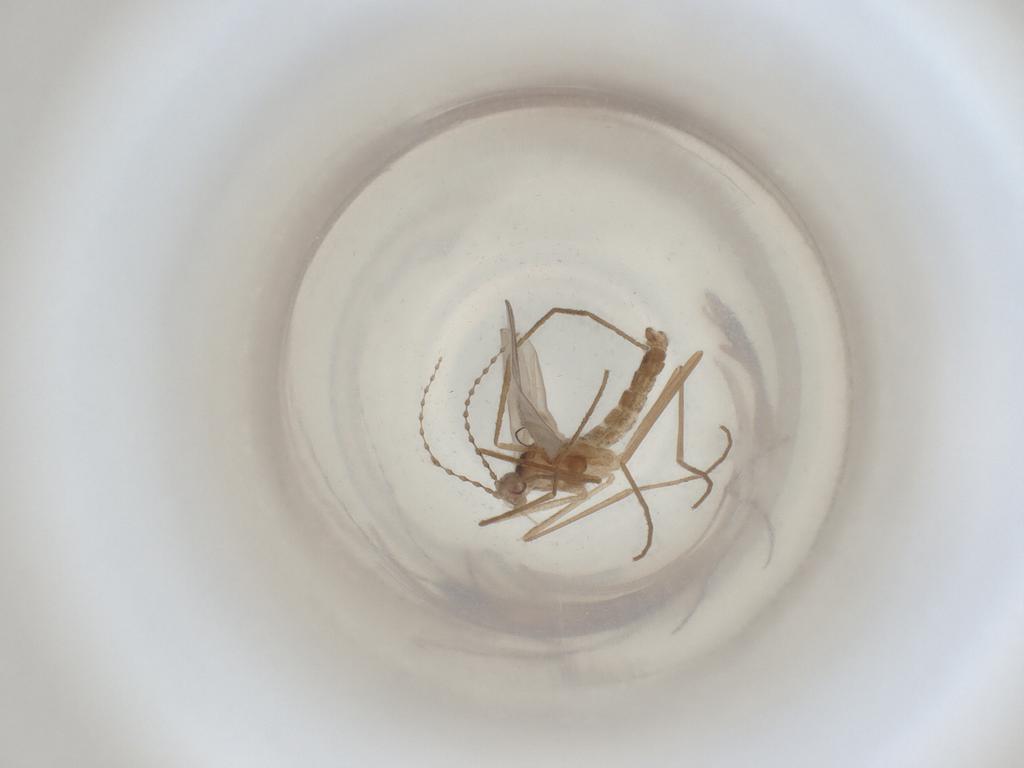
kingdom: Animalia
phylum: Arthropoda
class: Insecta
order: Diptera
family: Cecidomyiidae
